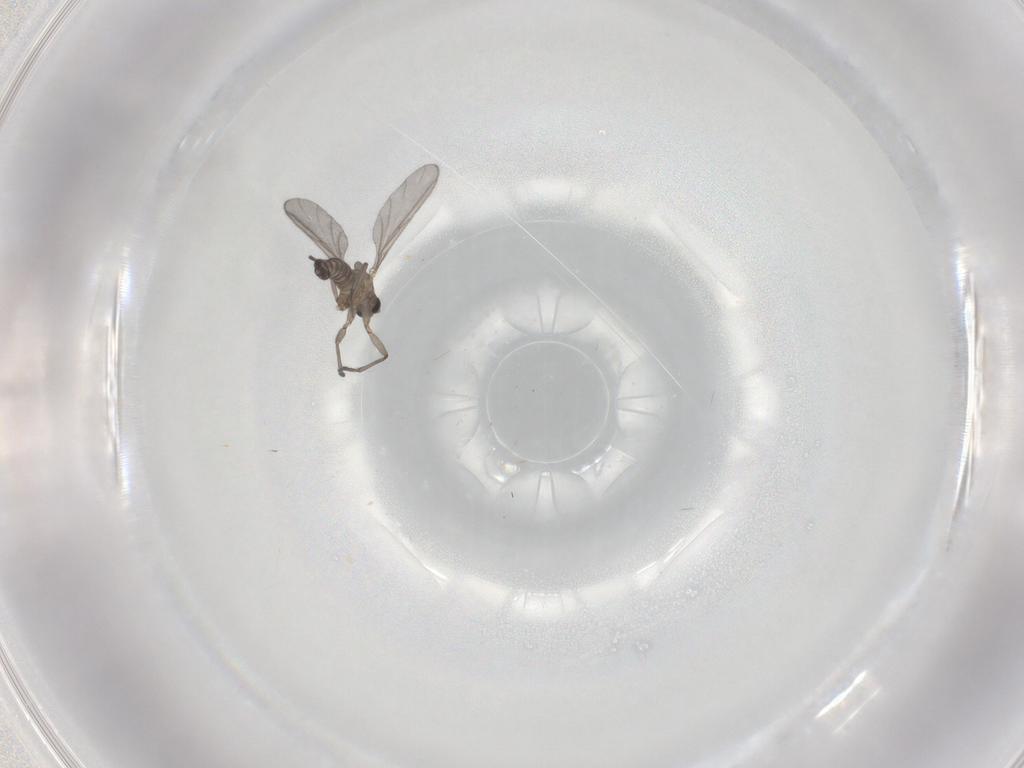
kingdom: Animalia
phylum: Arthropoda
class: Insecta
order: Diptera
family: Sciaridae
